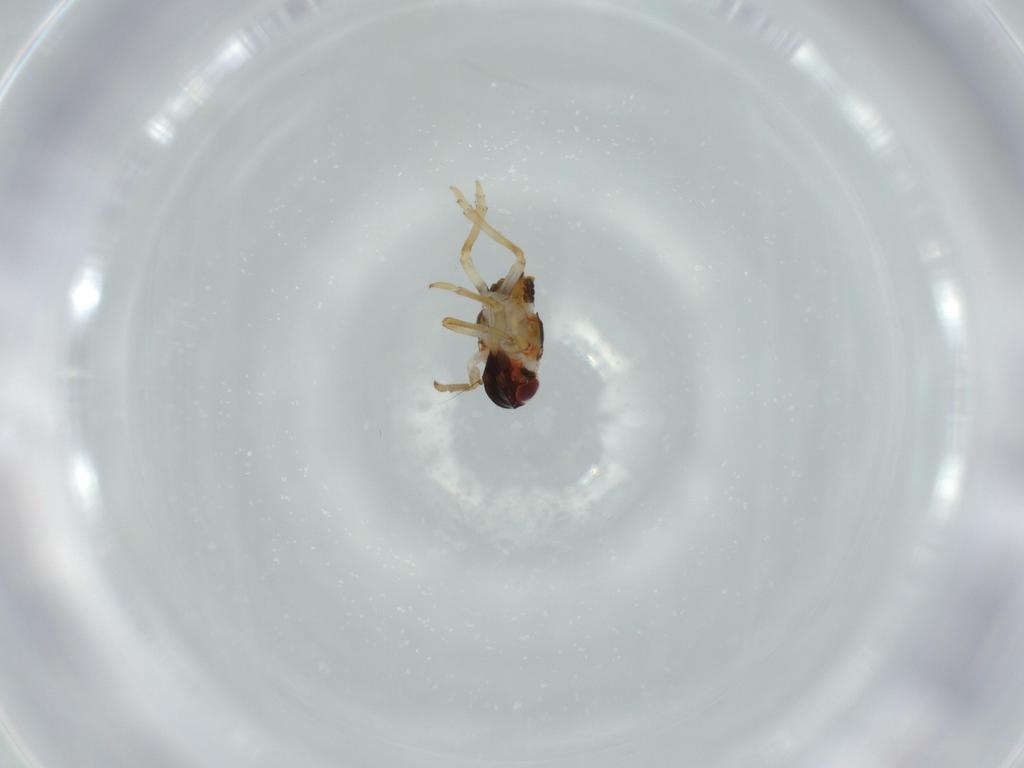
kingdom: Animalia
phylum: Arthropoda
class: Insecta
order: Hemiptera
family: Issidae
